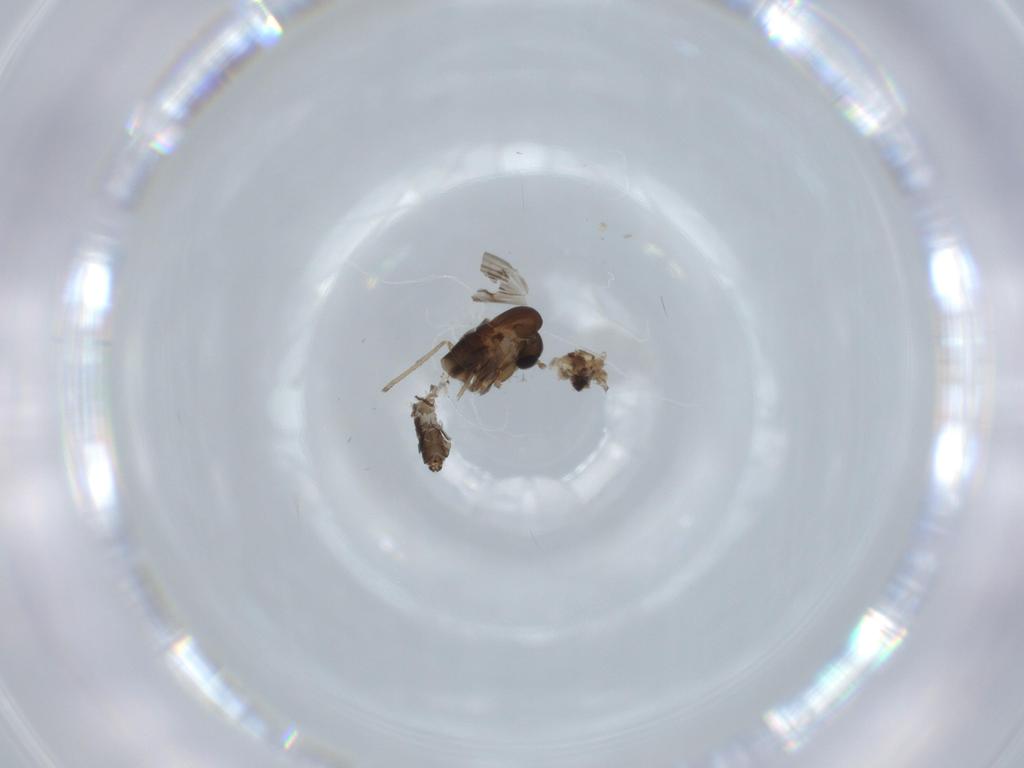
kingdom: Animalia
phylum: Arthropoda
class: Insecta
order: Diptera
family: Psychodidae
